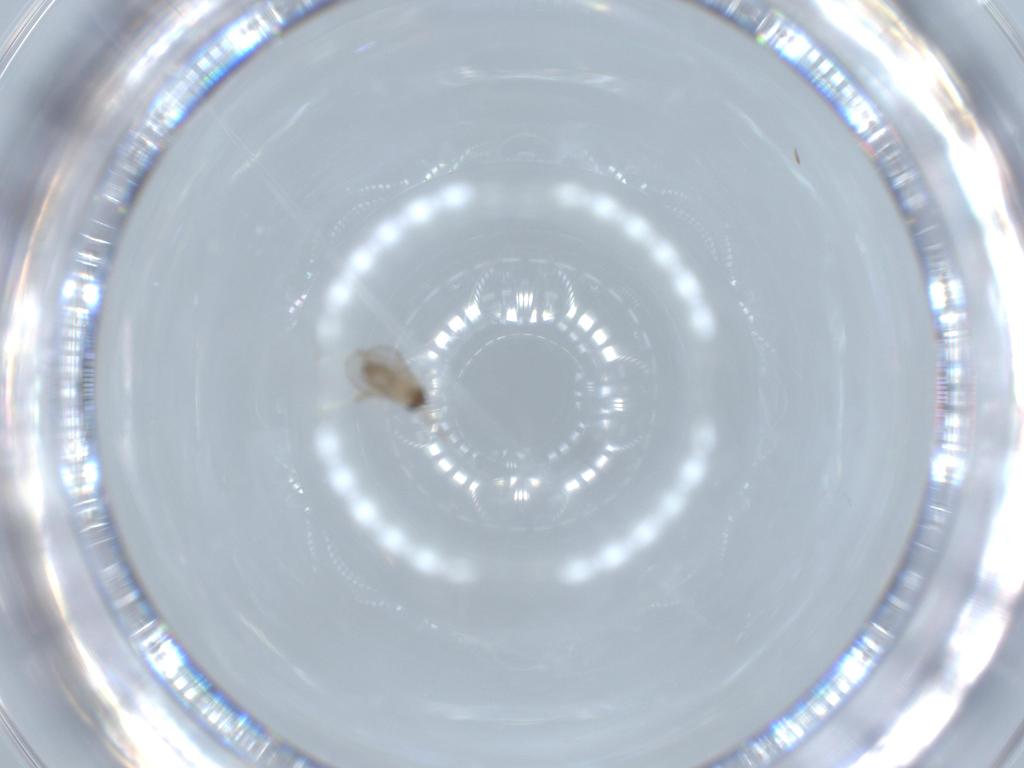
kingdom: Animalia
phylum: Arthropoda
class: Insecta
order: Diptera
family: Cecidomyiidae
